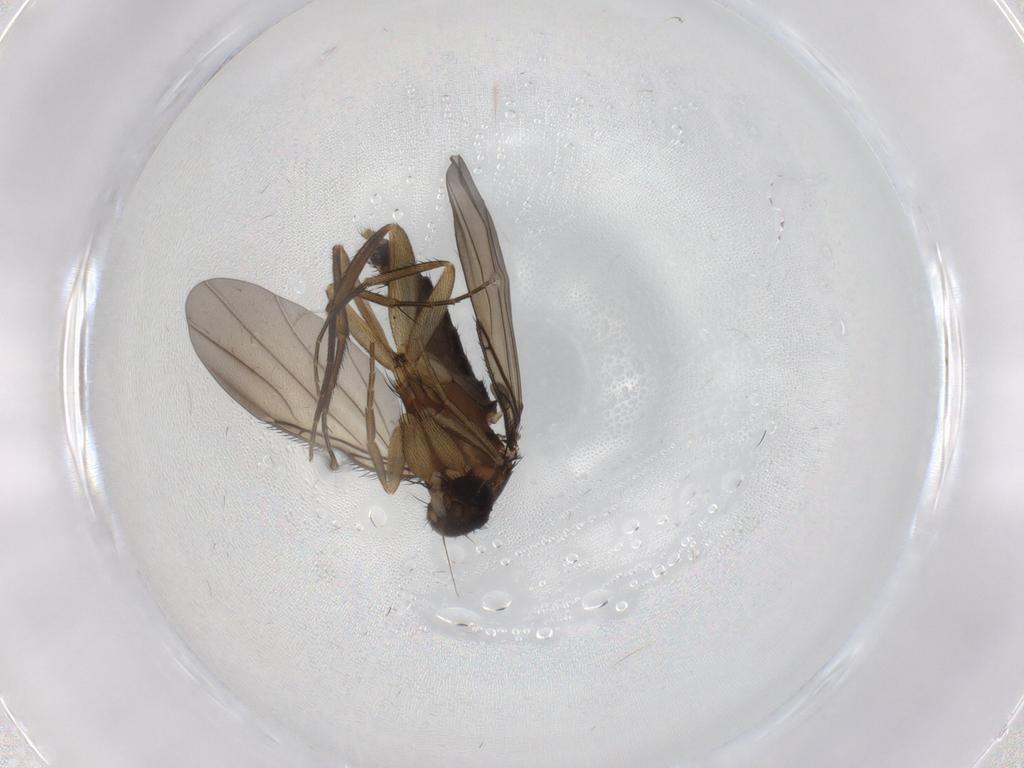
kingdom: Animalia
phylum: Arthropoda
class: Insecta
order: Diptera
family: Phoridae
